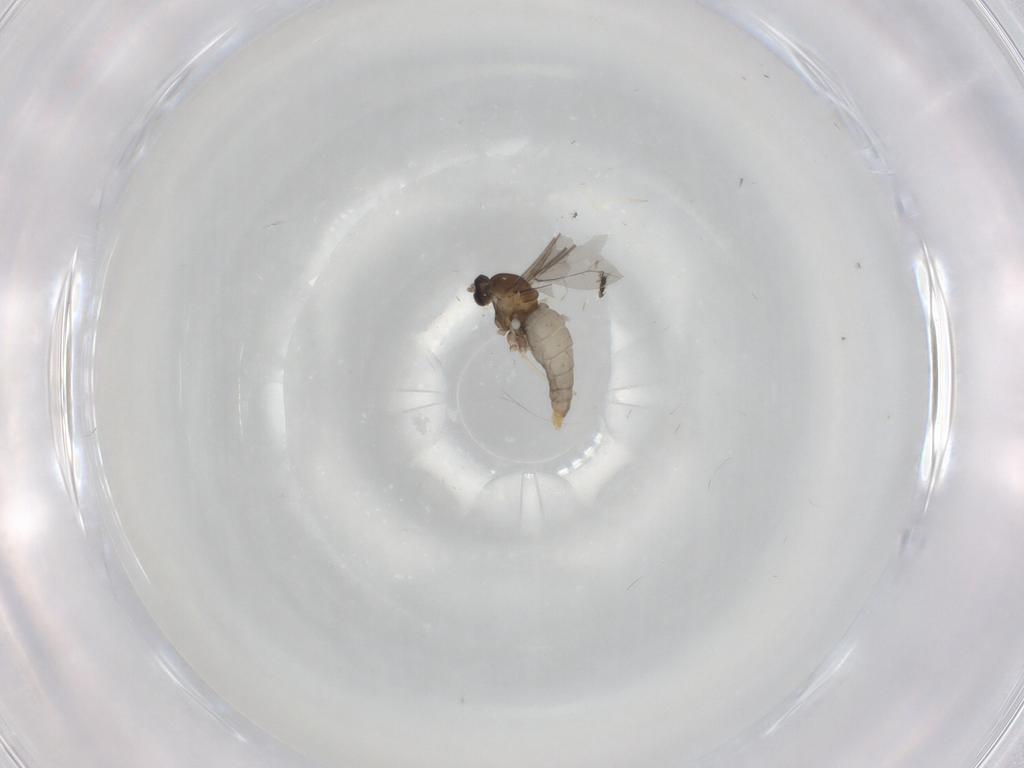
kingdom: Animalia
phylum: Arthropoda
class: Insecta
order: Diptera
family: Cecidomyiidae
